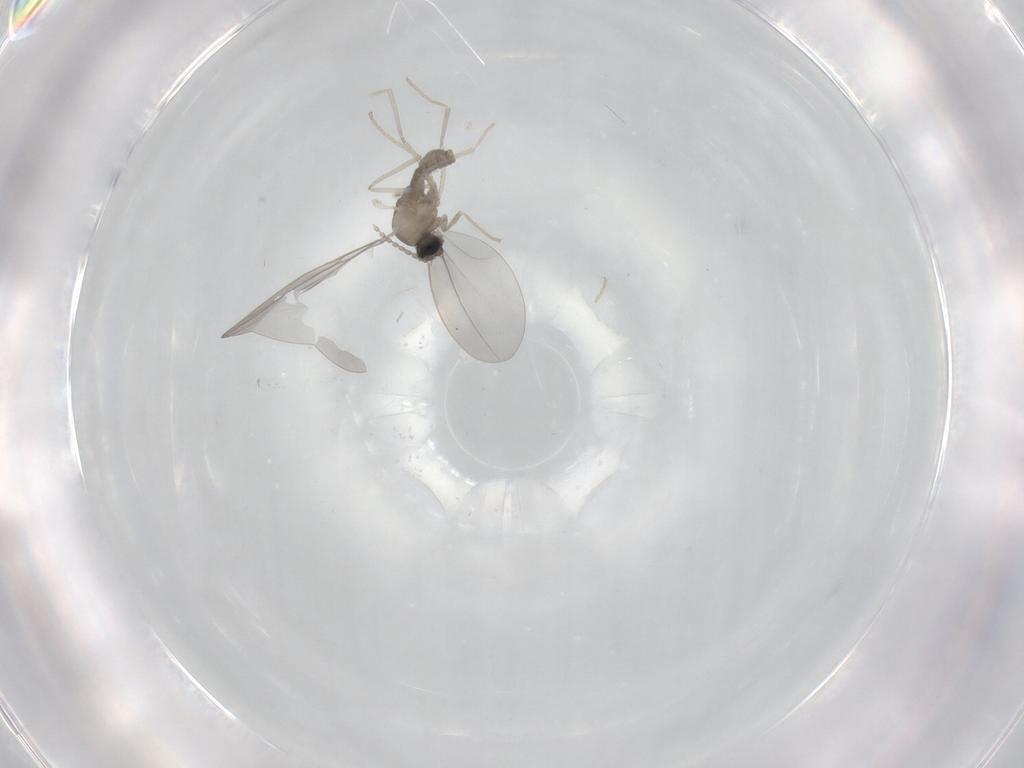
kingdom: Animalia
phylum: Arthropoda
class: Insecta
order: Diptera
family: Cecidomyiidae
